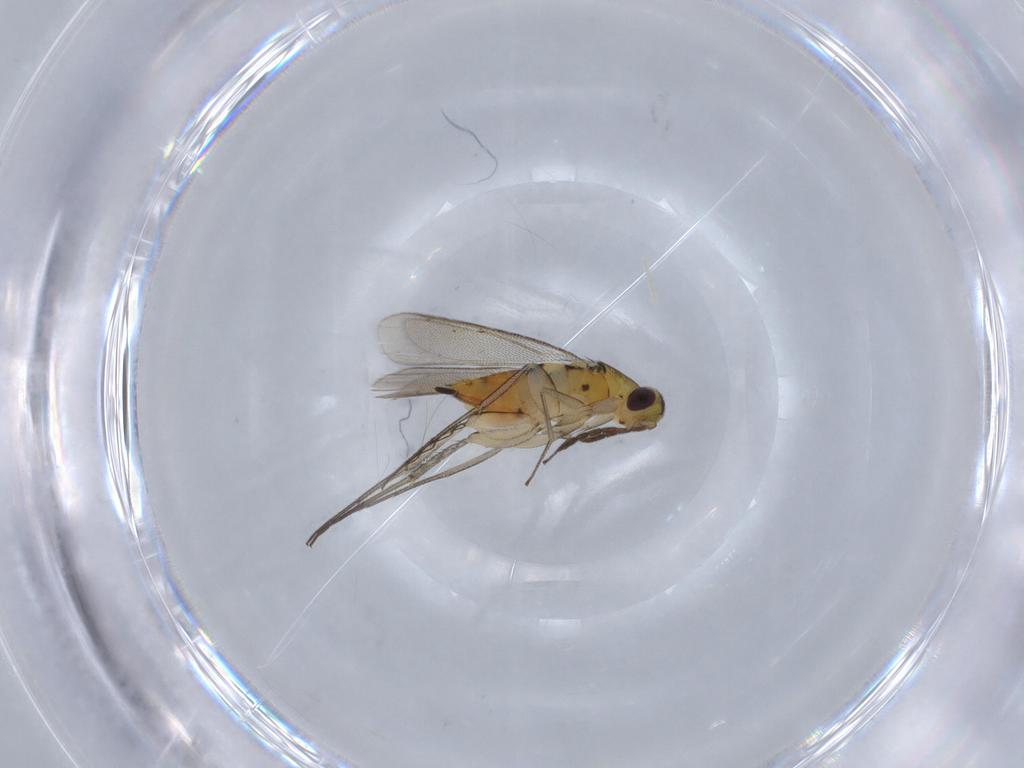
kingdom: Animalia
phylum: Arthropoda
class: Insecta
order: Hymenoptera
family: Eulophidae
